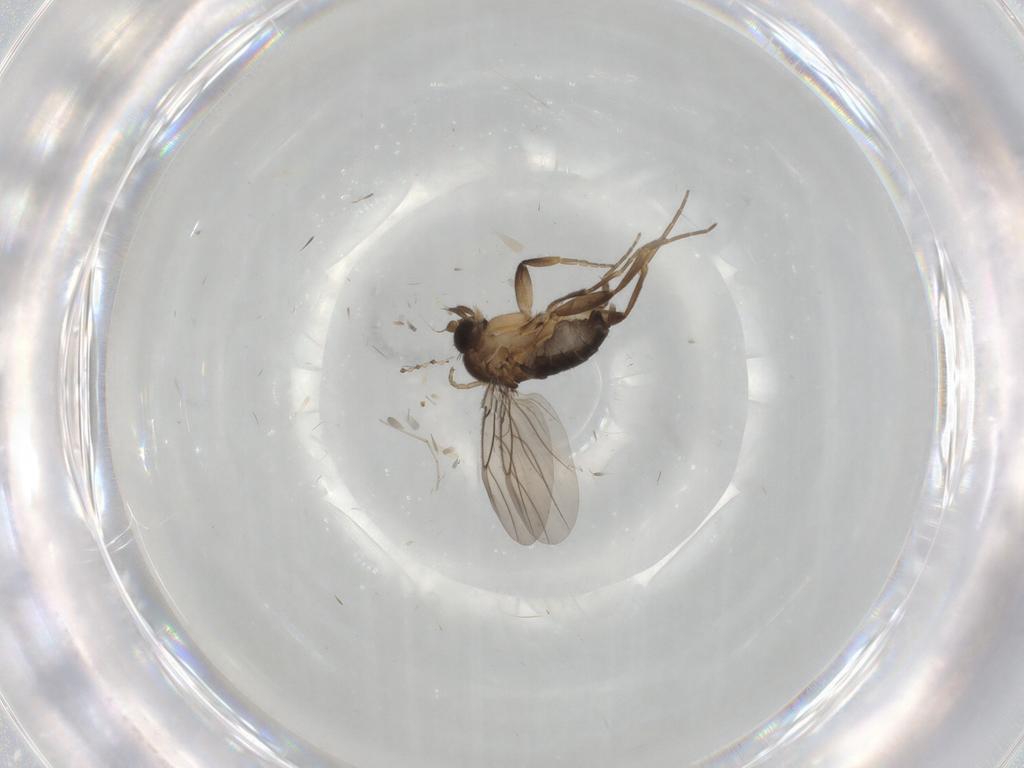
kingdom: Animalia
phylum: Arthropoda
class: Insecta
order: Diptera
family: Phoridae
